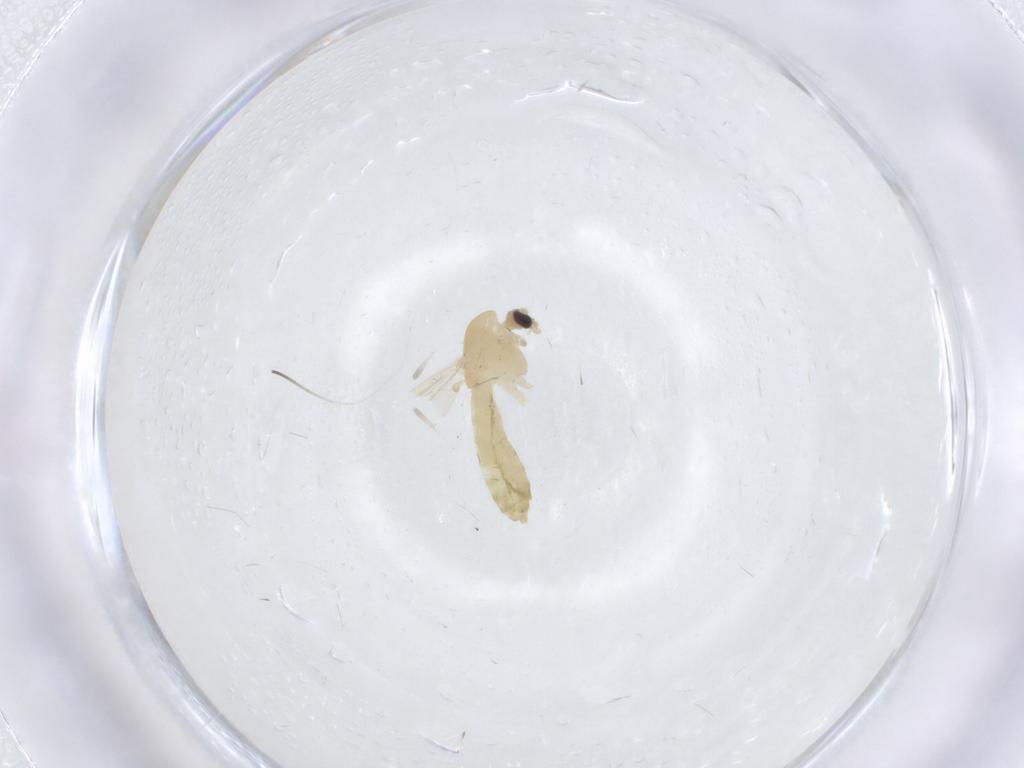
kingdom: Animalia
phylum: Arthropoda
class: Insecta
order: Diptera
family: Chironomidae
